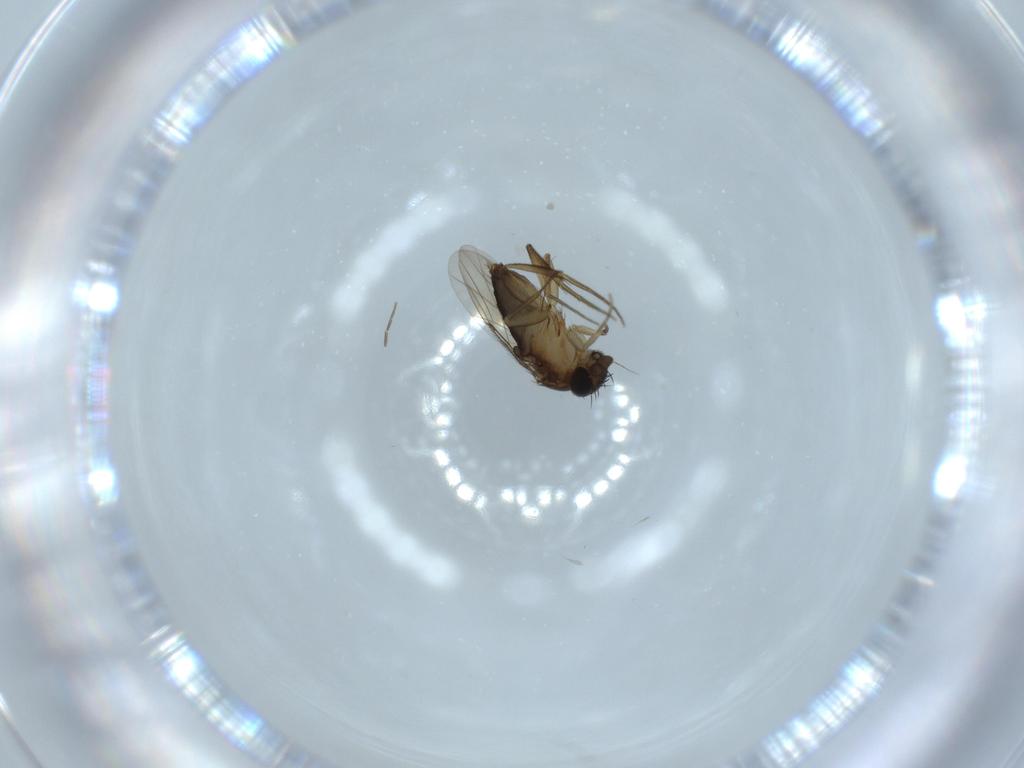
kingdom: Animalia
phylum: Arthropoda
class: Insecta
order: Diptera
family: Phoridae
